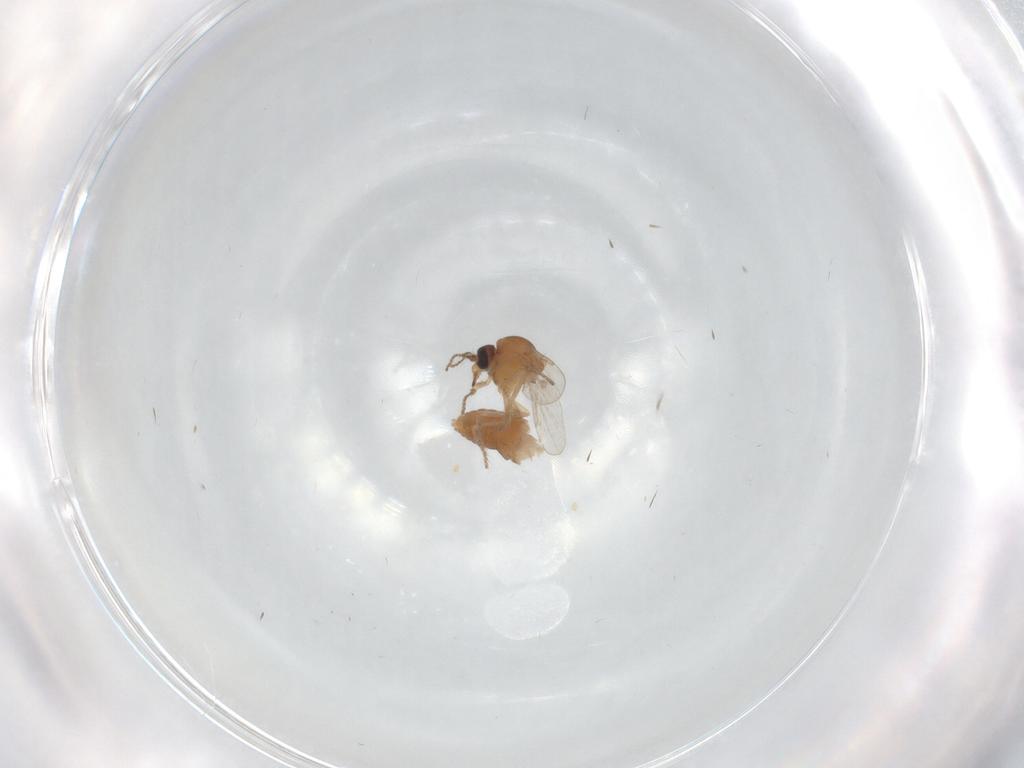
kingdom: Animalia
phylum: Arthropoda
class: Insecta
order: Diptera
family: Ceratopogonidae
